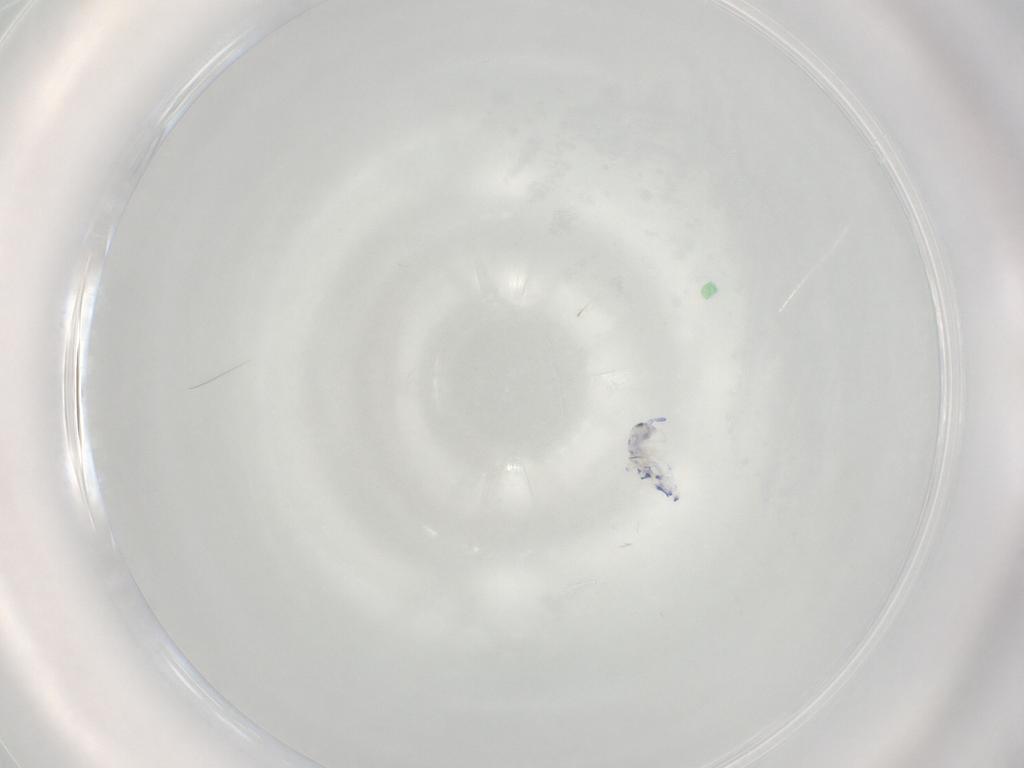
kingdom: Animalia
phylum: Arthropoda
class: Collembola
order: Entomobryomorpha
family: Entomobryidae
